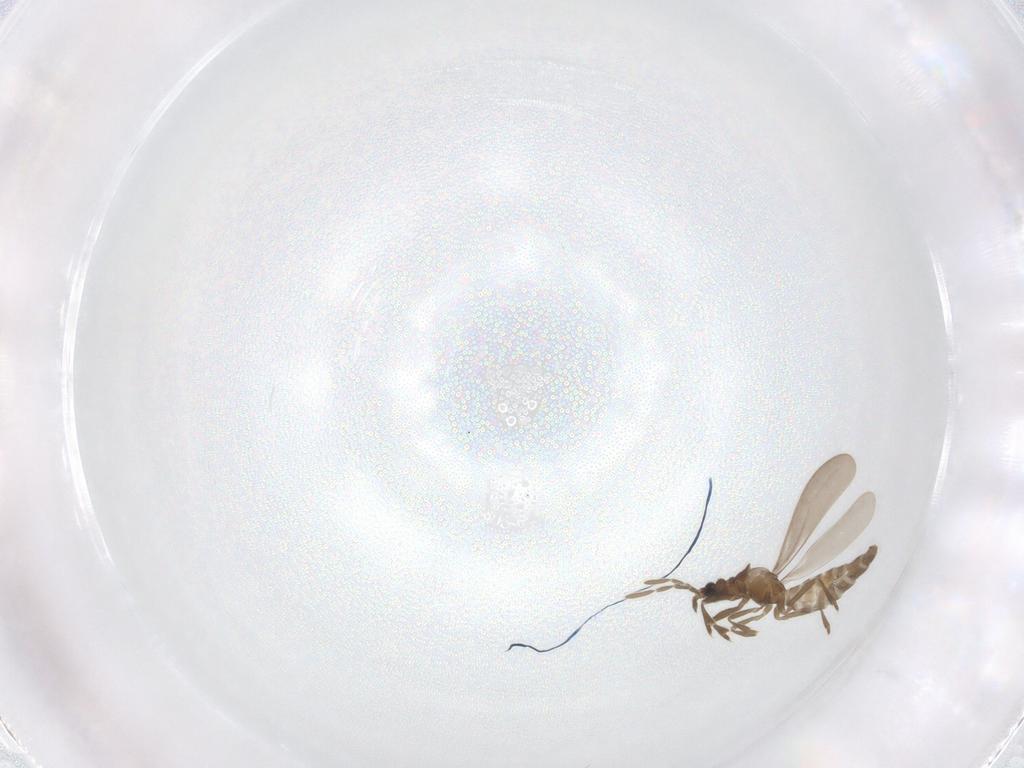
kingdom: Animalia
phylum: Arthropoda
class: Insecta
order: Hemiptera
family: Enicocephalidae
